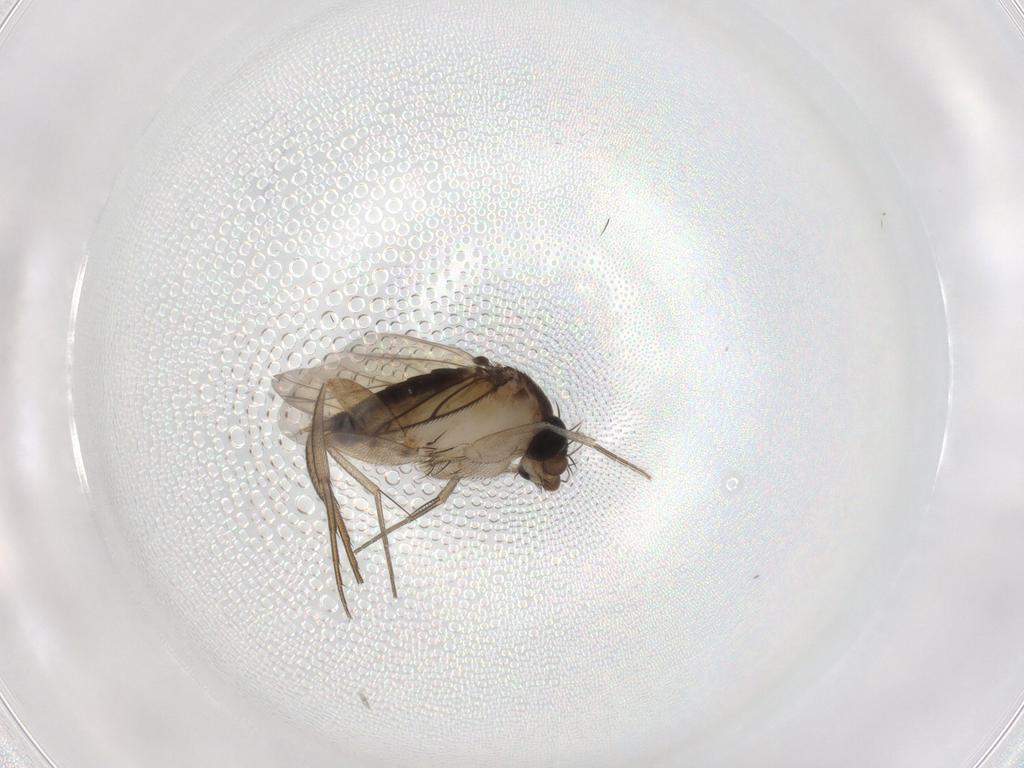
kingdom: Animalia
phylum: Arthropoda
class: Insecta
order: Diptera
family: Cecidomyiidae
